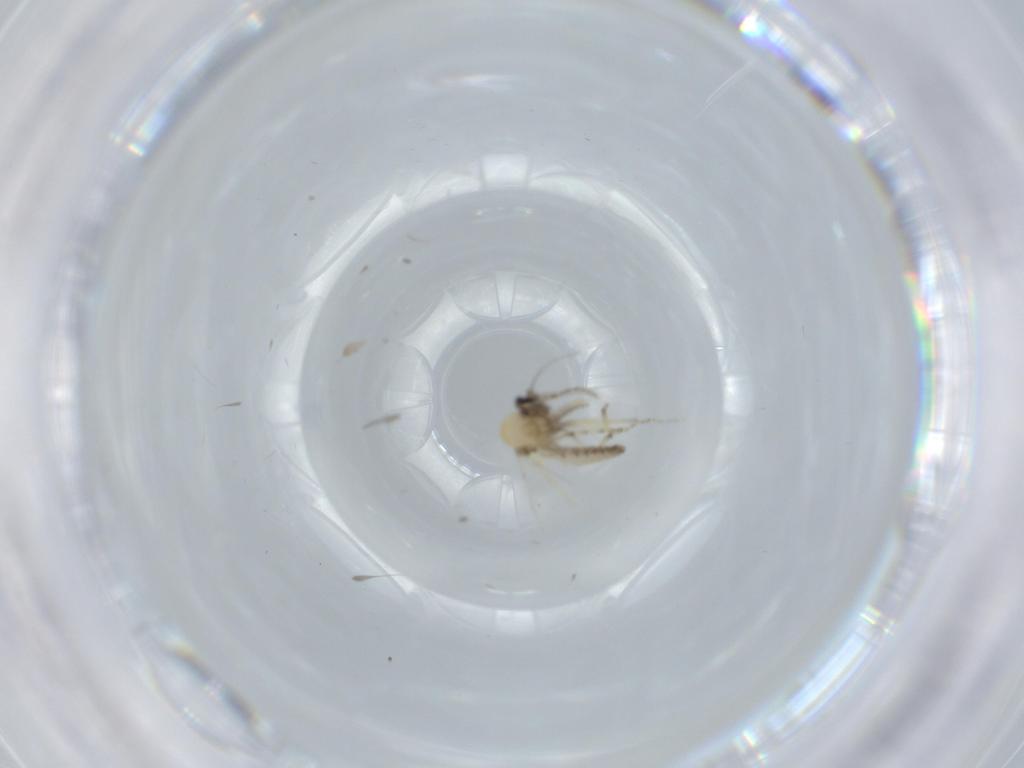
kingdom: Animalia
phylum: Arthropoda
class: Insecta
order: Diptera
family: Ceratopogonidae
